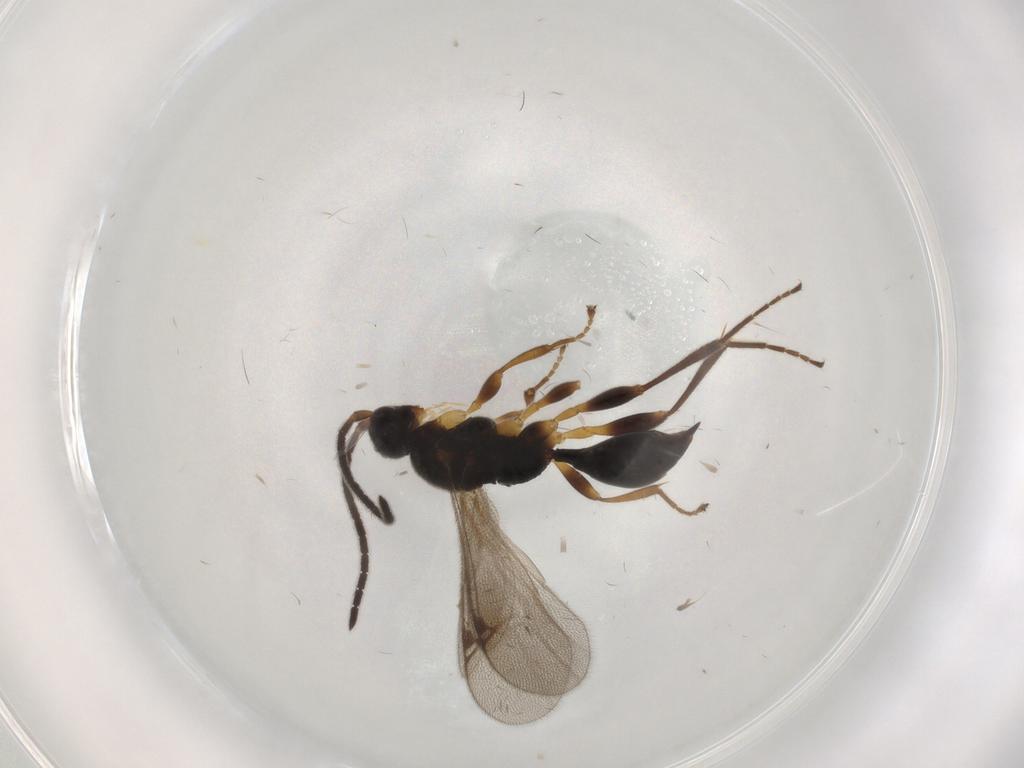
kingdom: Animalia
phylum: Arthropoda
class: Insecta
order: Hymenoptera
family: Proctotrupidae
